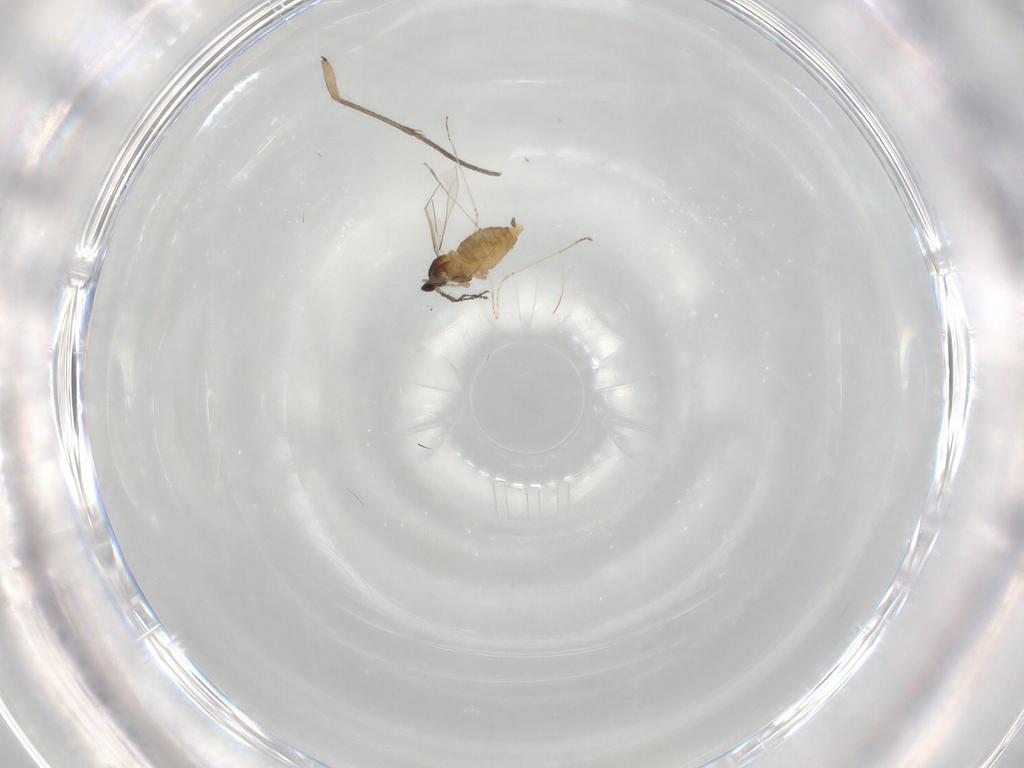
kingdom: Animalia
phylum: Arthropoda
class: Insecta
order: Diptera
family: Cecidomyiidae
